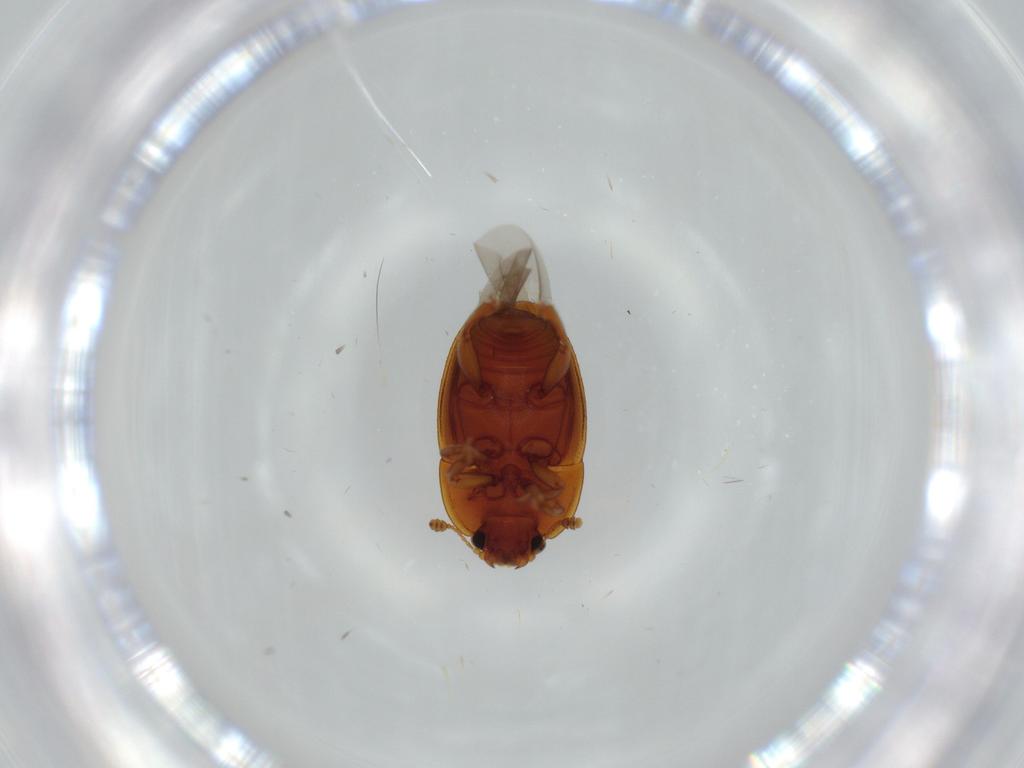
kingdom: Animalia
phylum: Arthropoda
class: Insecta
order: Coleoptera
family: Chrysomelidae
